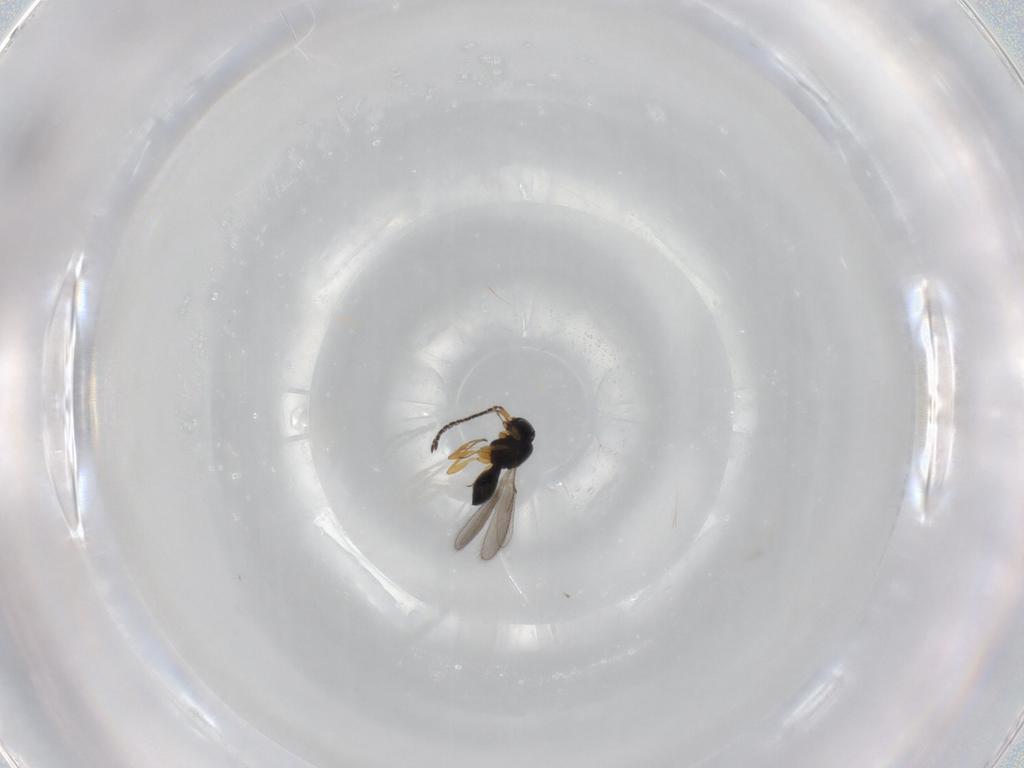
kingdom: Animalia
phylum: Arthropoda
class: Insecta
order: Hymenoptera
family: Scelionidae
